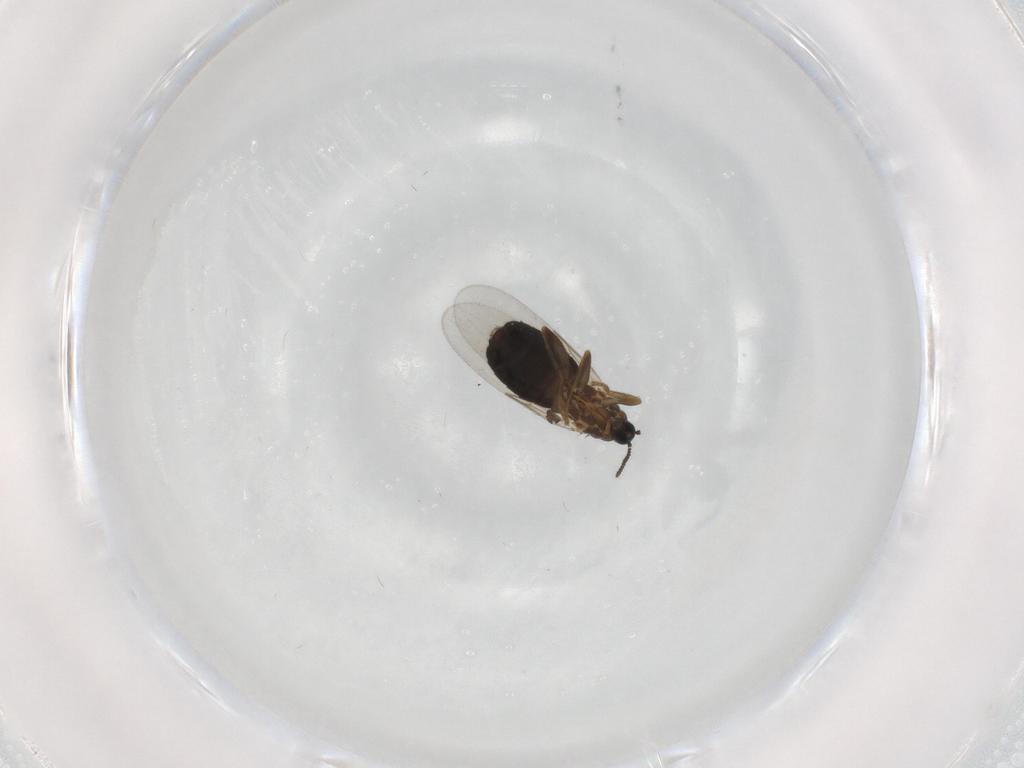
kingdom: Animalia
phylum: Arthropoda
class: Insecta
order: Diptera
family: Scatopsidae
